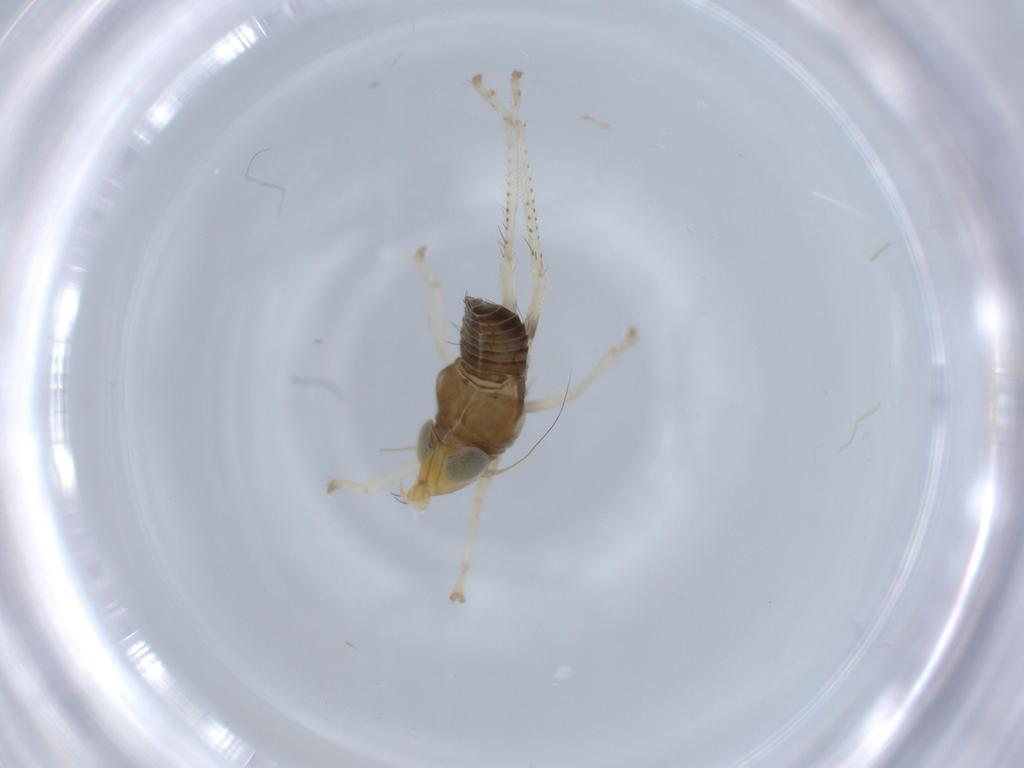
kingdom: Animalia
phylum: Arthropoda
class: Insecta
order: Hemiptera
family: Cicadellidae
